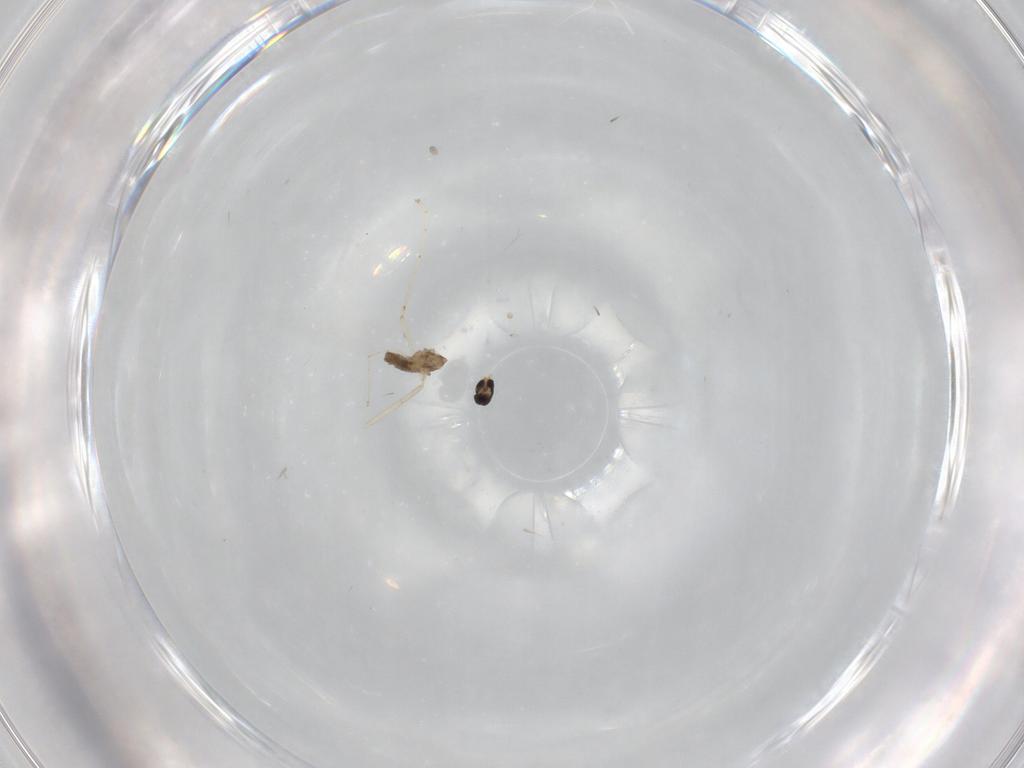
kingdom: Animalia
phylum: Arthropoda
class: Insecta
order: Diptera
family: Cecidomyiidae
